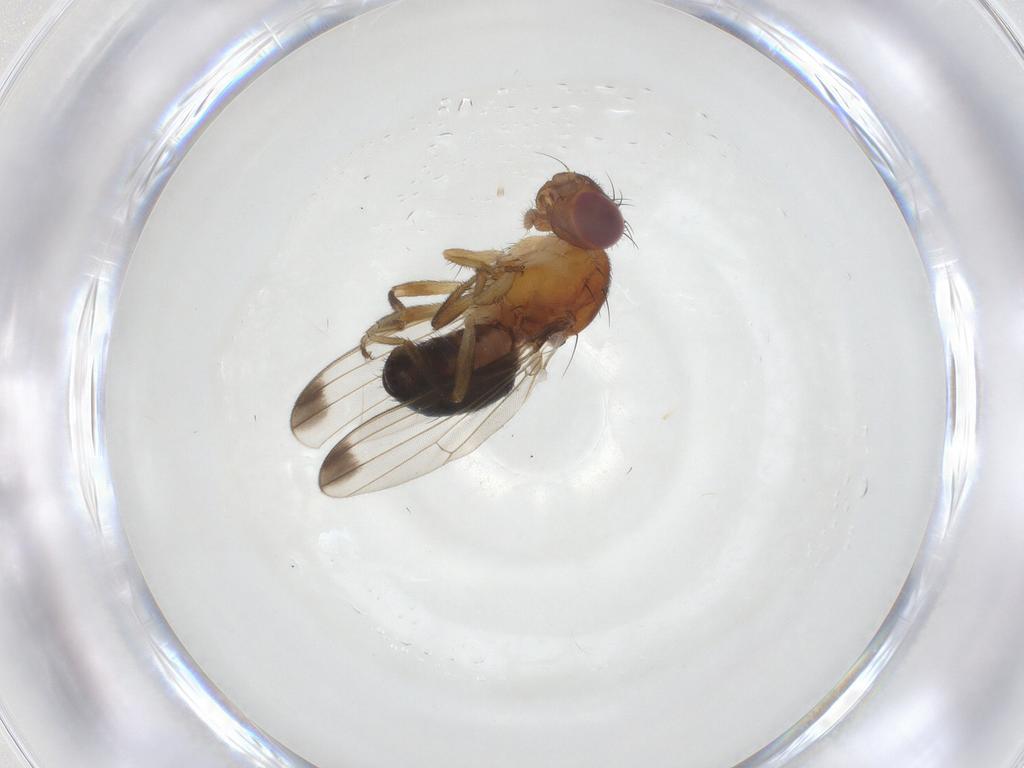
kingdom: Animalia
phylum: Arthropoda
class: Insecta
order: Diptera
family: Piophilidae
